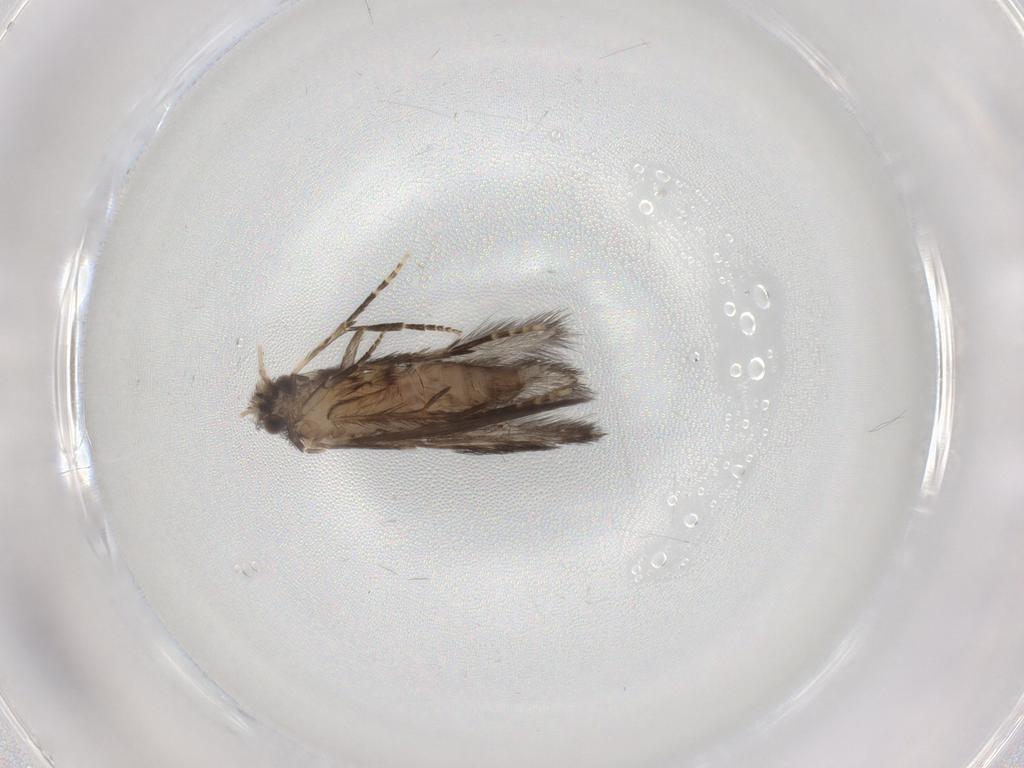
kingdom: Animalia
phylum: Arthropoda
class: Insecta
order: Trichoptera
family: Hydroptilidae
